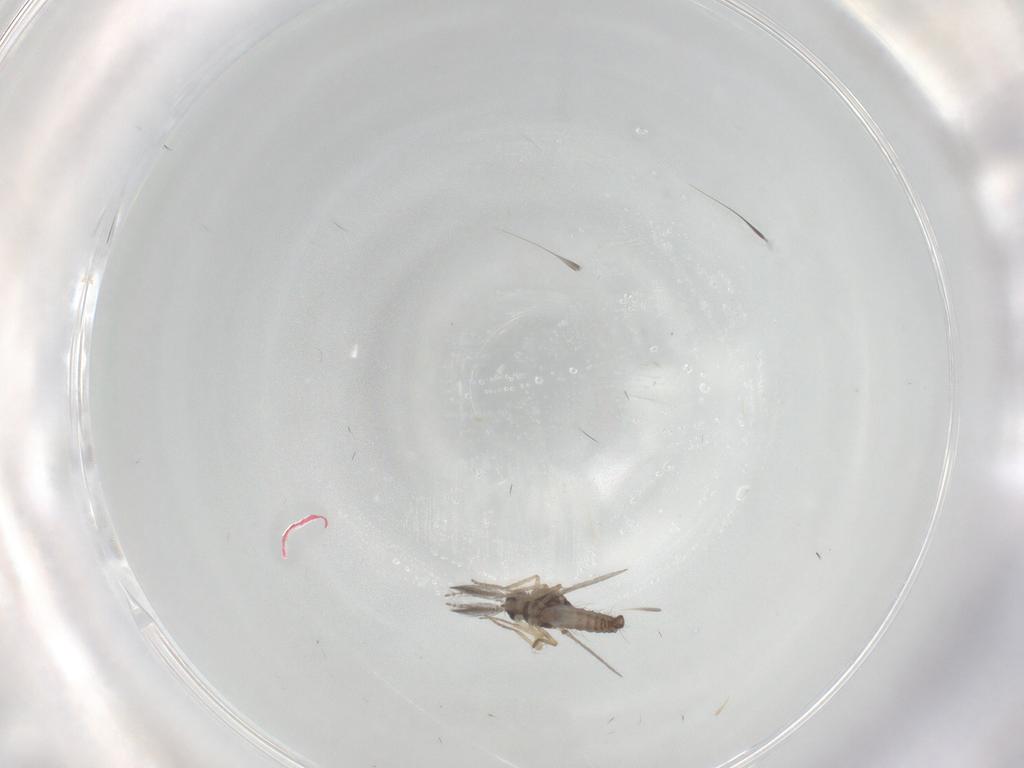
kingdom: Animalia
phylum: Arthropoda
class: Insecta
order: Diptera
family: Ceratopogonidae
